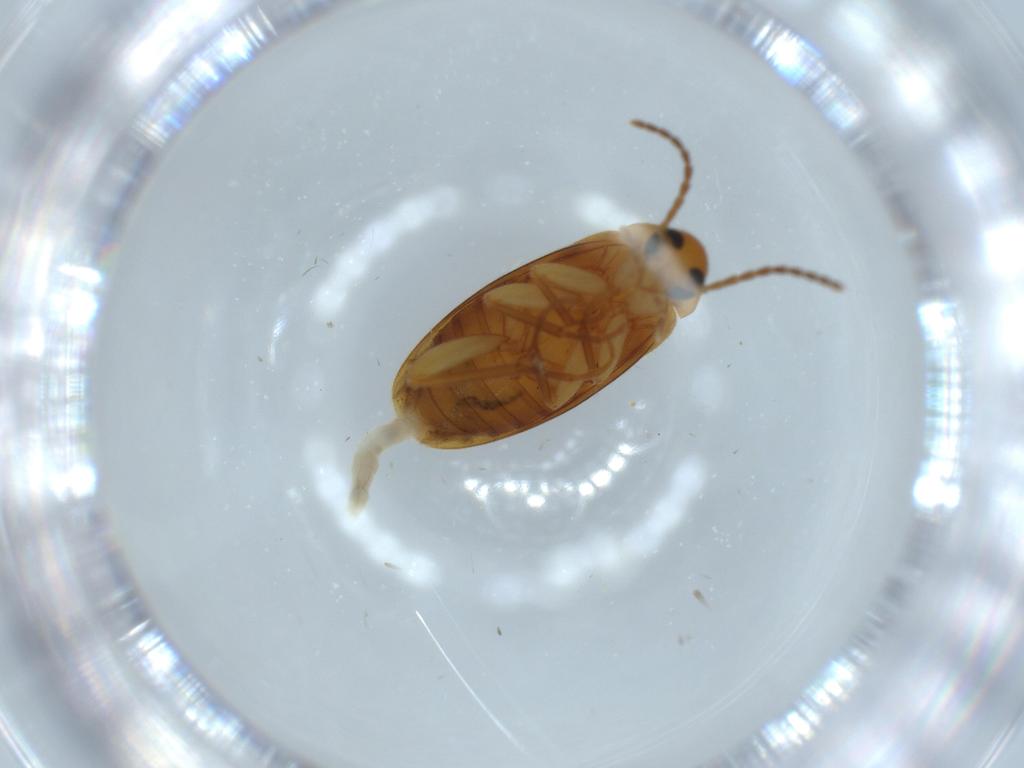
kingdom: Animalia
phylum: Arthropoda
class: Insecta
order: Coleoptera
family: Scraptiidae
